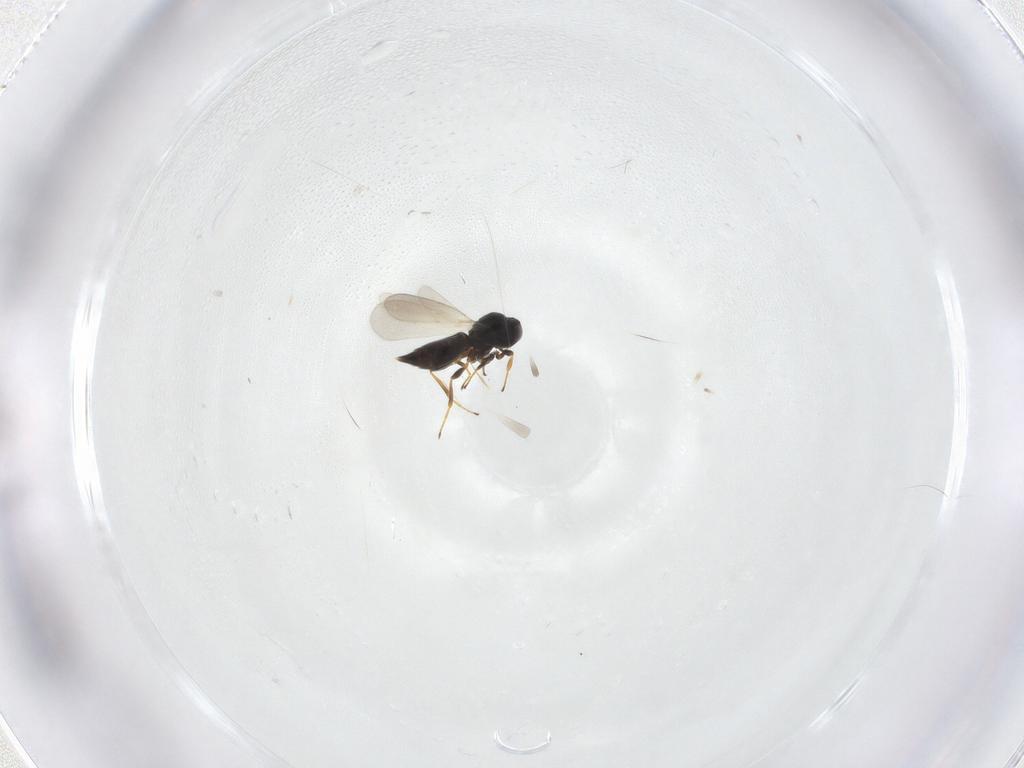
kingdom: Animalia
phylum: Arthropoda
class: Insecta
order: Hymenoptera
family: Platygastridae
